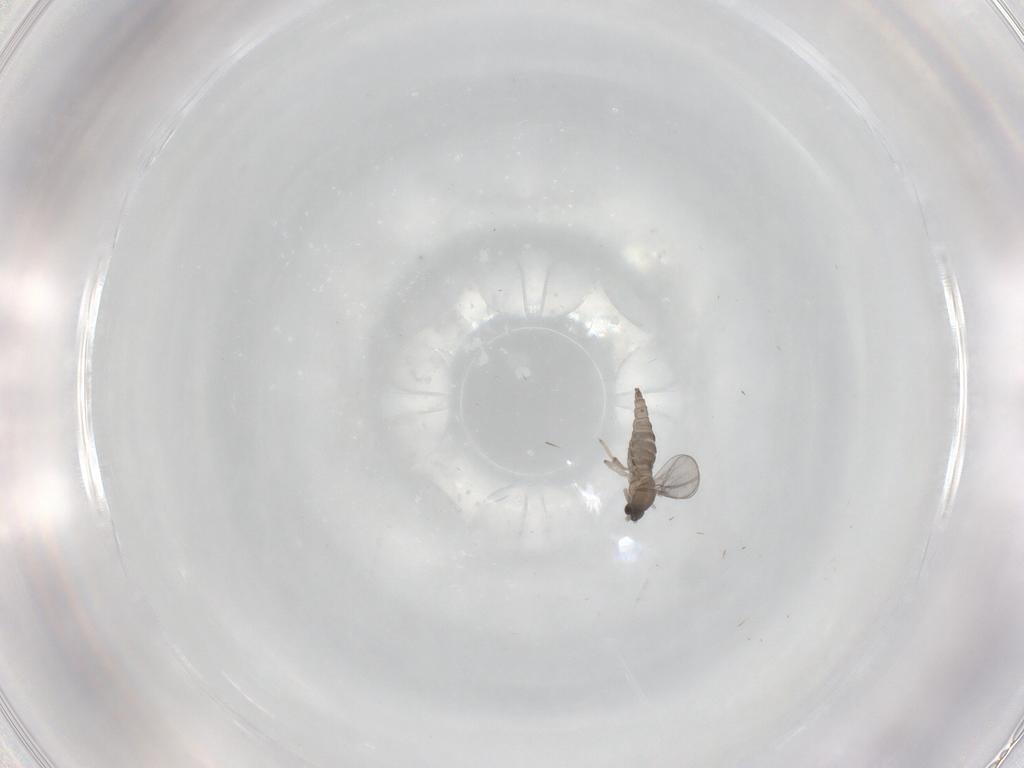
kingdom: Animalia
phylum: Arthropoda
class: Insecta
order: Diptera
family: Cecidomyiidae
